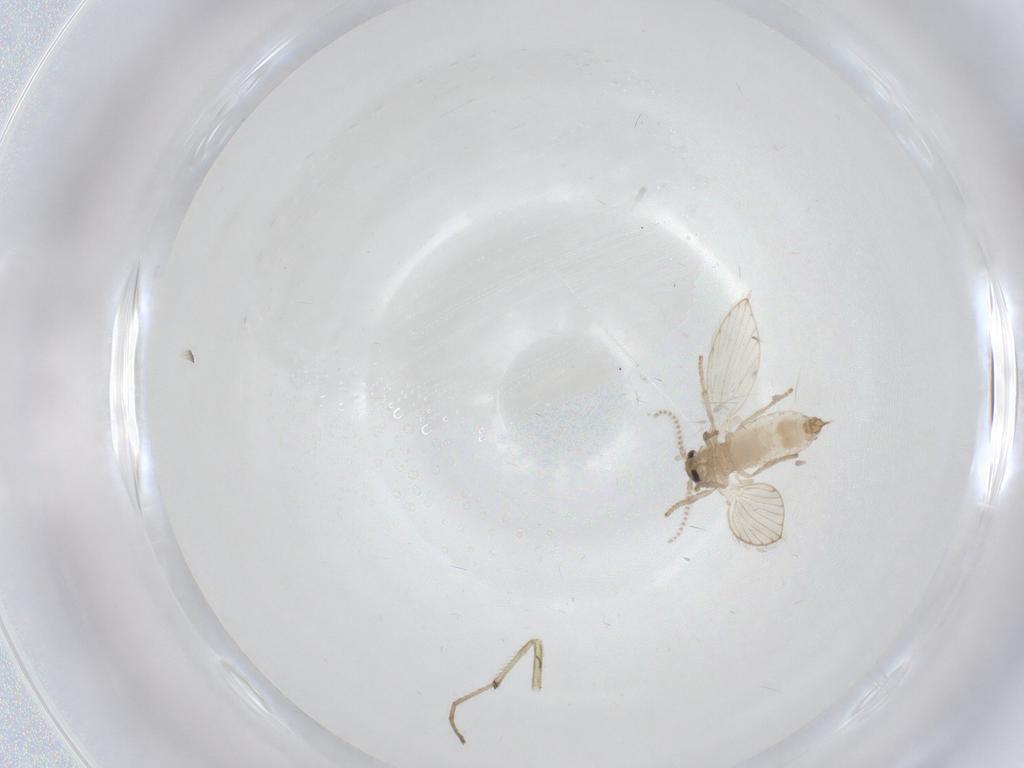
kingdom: Animalia
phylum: Arthropoda
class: Insecta
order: Diptera
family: Psychodidae
